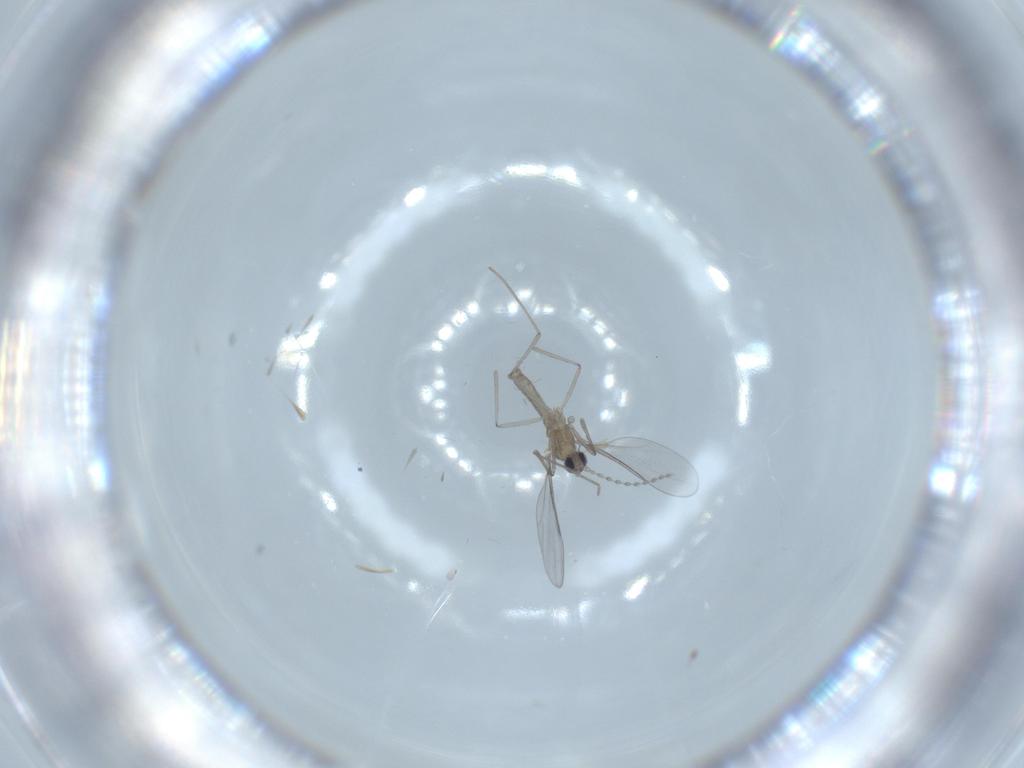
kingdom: Animalia
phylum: Arthropoda
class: Insecta
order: Diptera
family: Cecidomyiidae
